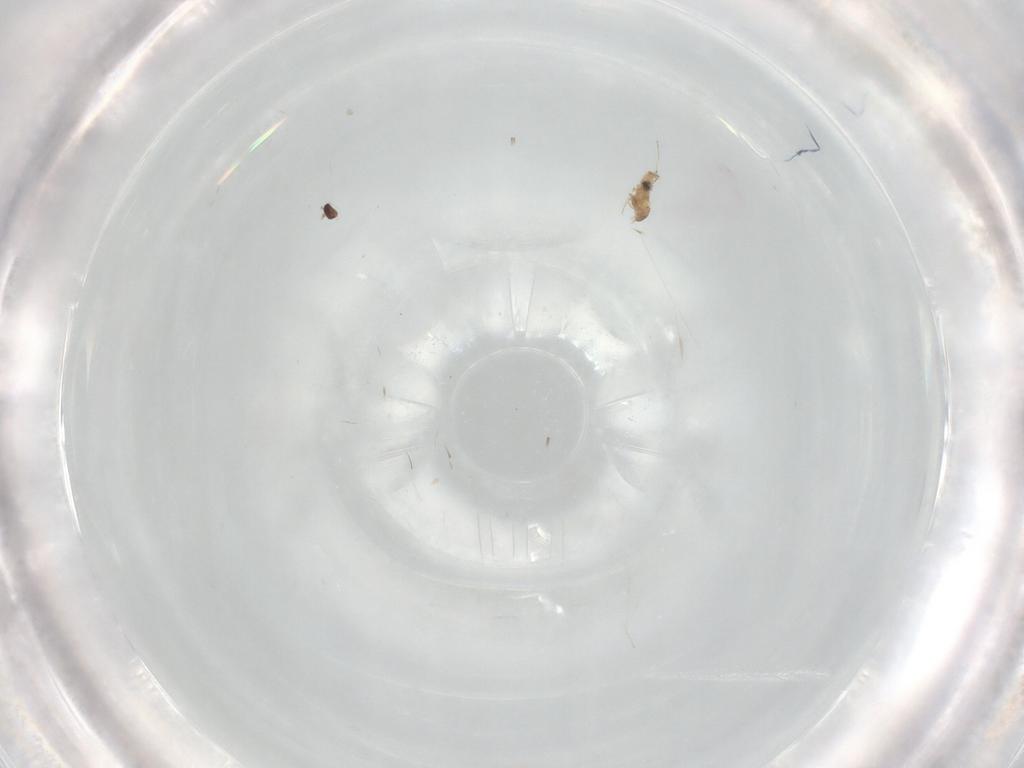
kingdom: Animalia
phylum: Arthropoda
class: Insecta
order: Diptera
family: Cecidomyiidae
